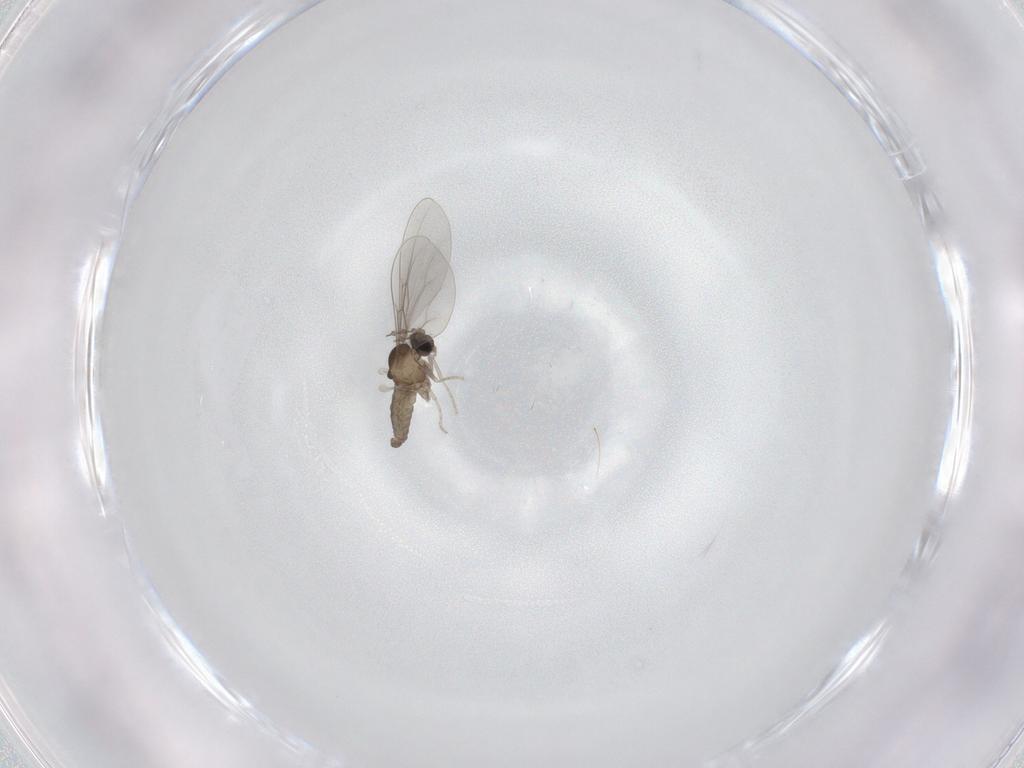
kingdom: Animalia
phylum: Arthropoda
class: Insecta
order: Diptera
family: Cecidomyiidae
